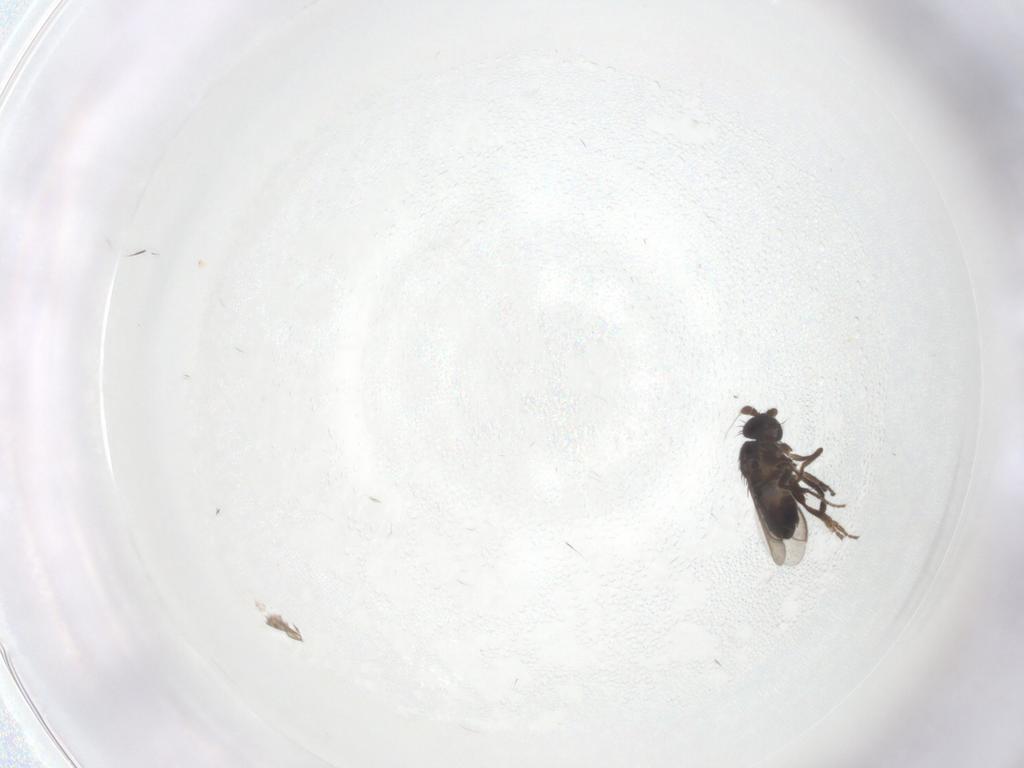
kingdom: Animalia
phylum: Arthropoda
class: Insecta
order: Diptera
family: Sphaeroceridae
